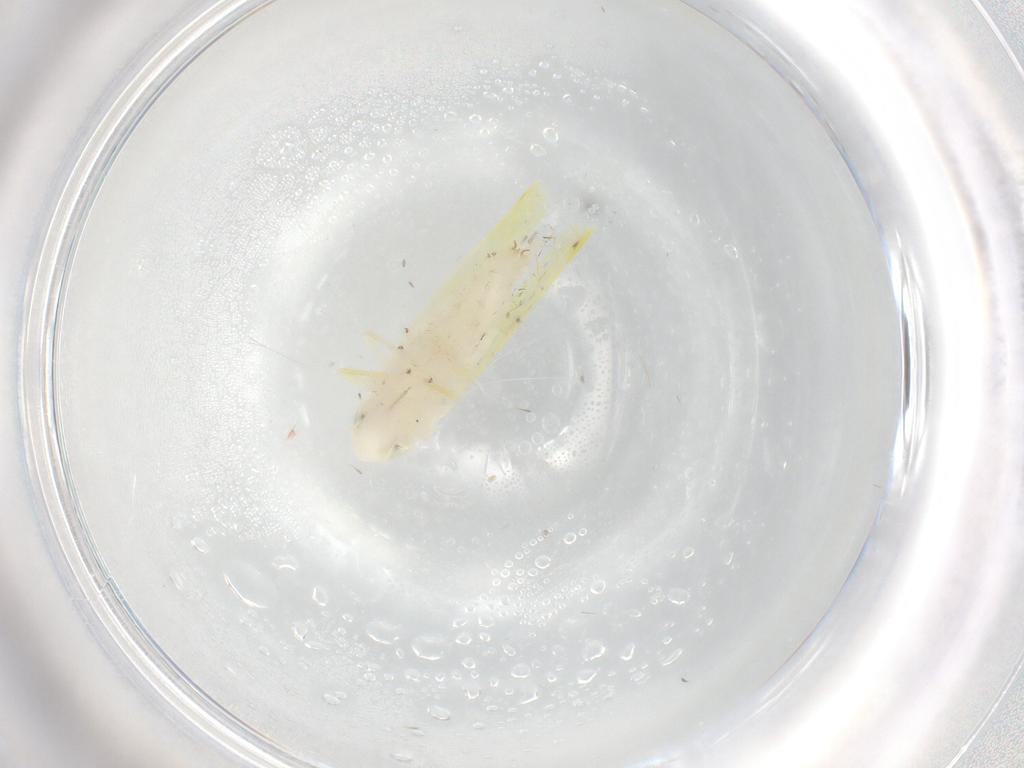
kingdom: Animalia
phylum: Arthropoda
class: Insecta
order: Hemiptera
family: Cicadellidae
